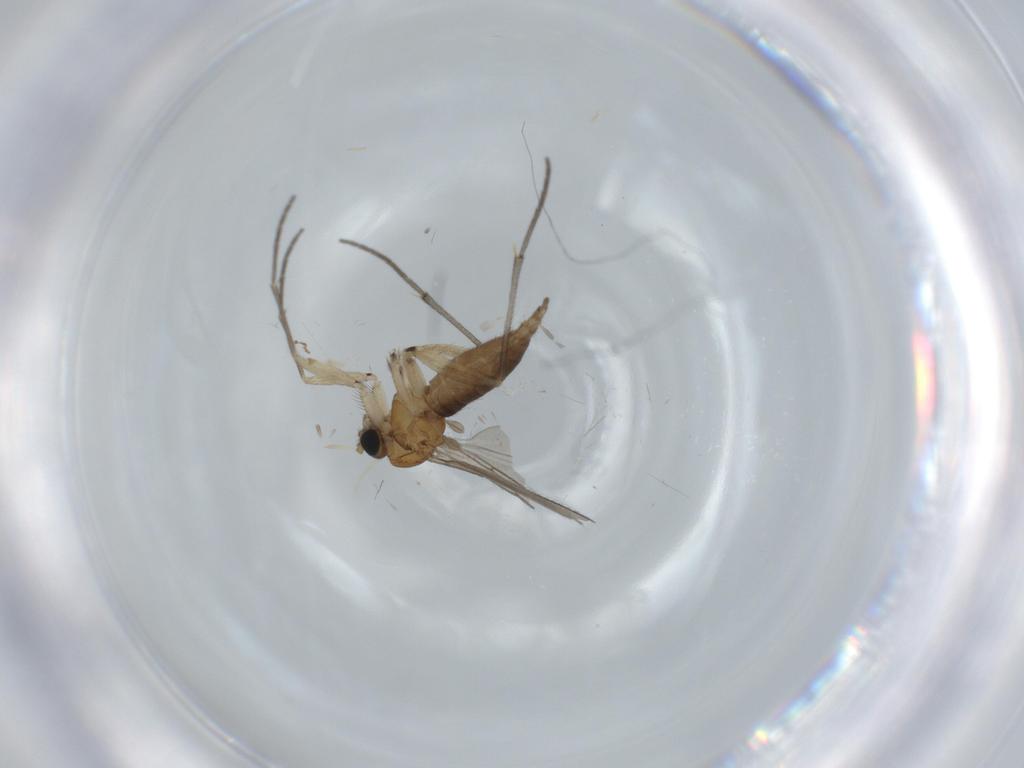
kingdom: Animalia
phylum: Arthropoda
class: Insecta
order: Diptera
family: Sciaridae
